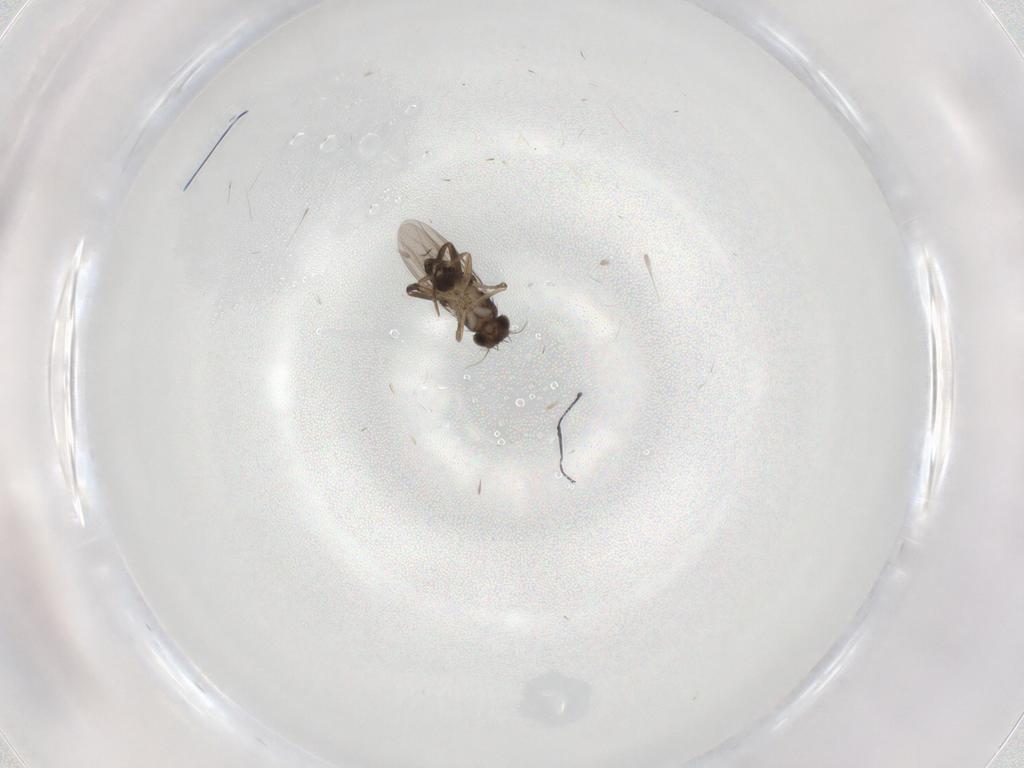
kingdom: Animalia
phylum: Arthropoda
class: Insecta
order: Diptera
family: Phoridae
